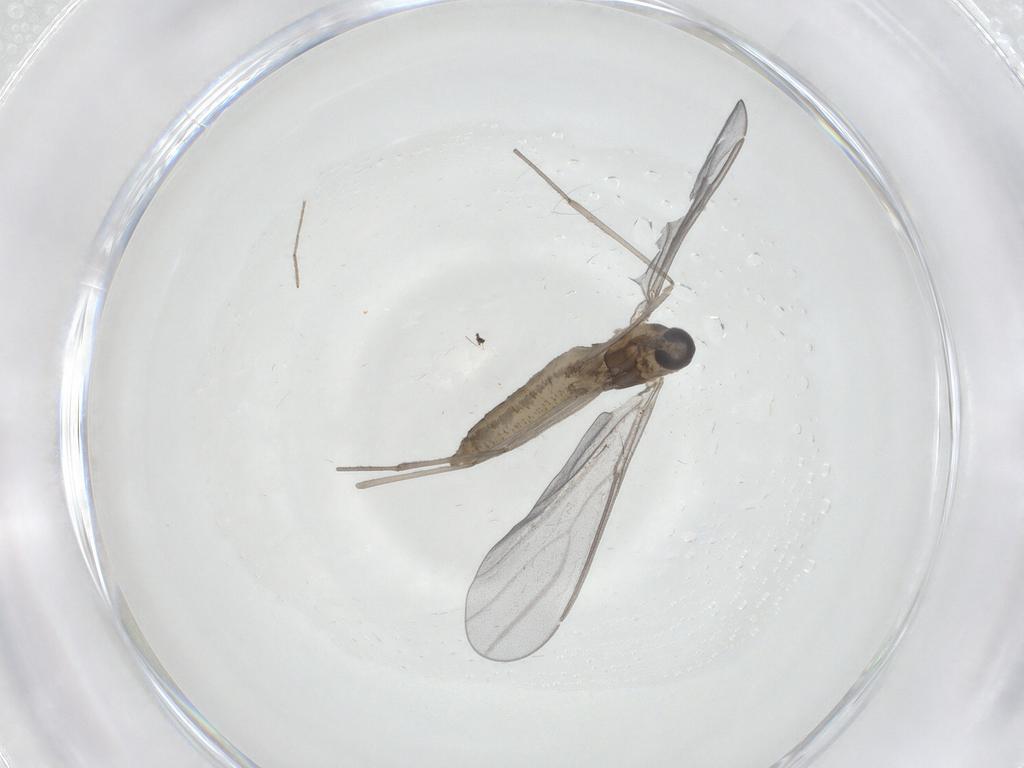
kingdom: Animalia
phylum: Arthropoda
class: Insecta
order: Diptera
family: Cecidomyiidae
